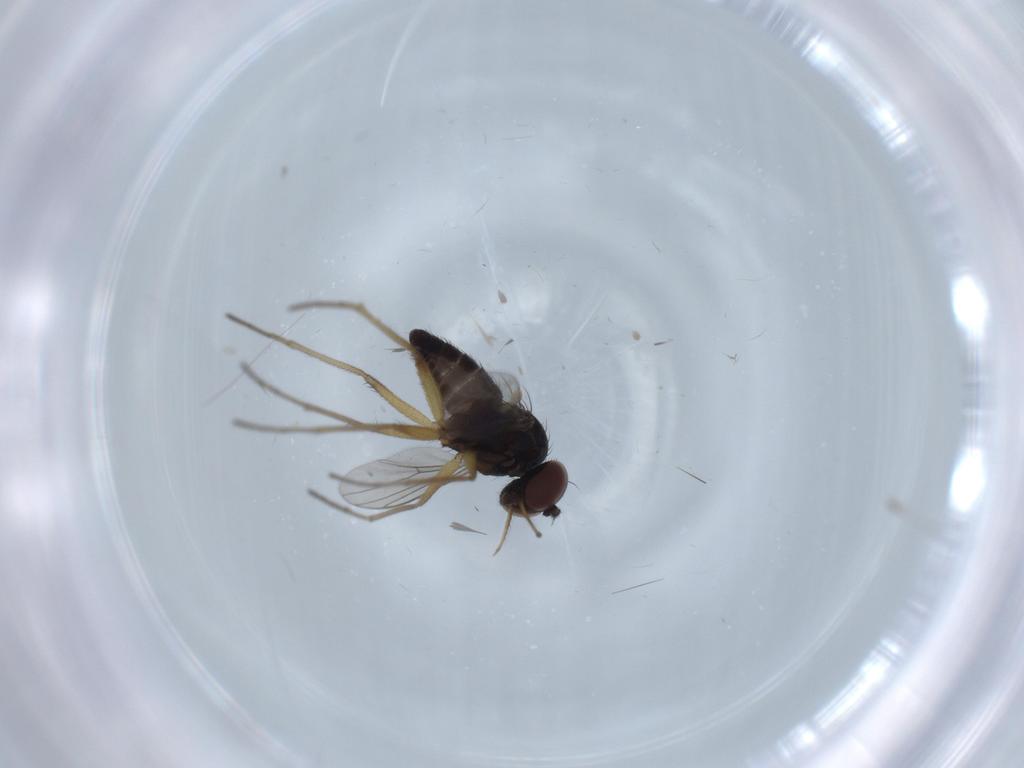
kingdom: Animalia
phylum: Arthropoda
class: Insecta
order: Diptera
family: Dolichopodidae
